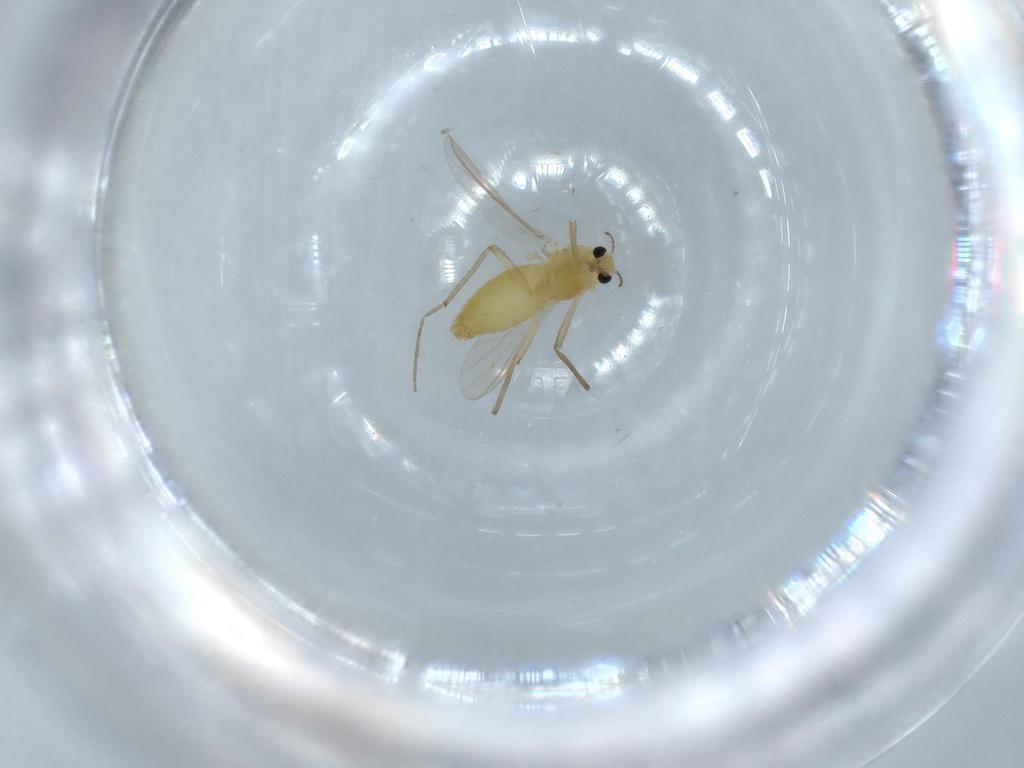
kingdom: Animalia
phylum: Arthropoda
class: Insecta
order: Diptera
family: Chironomidae
